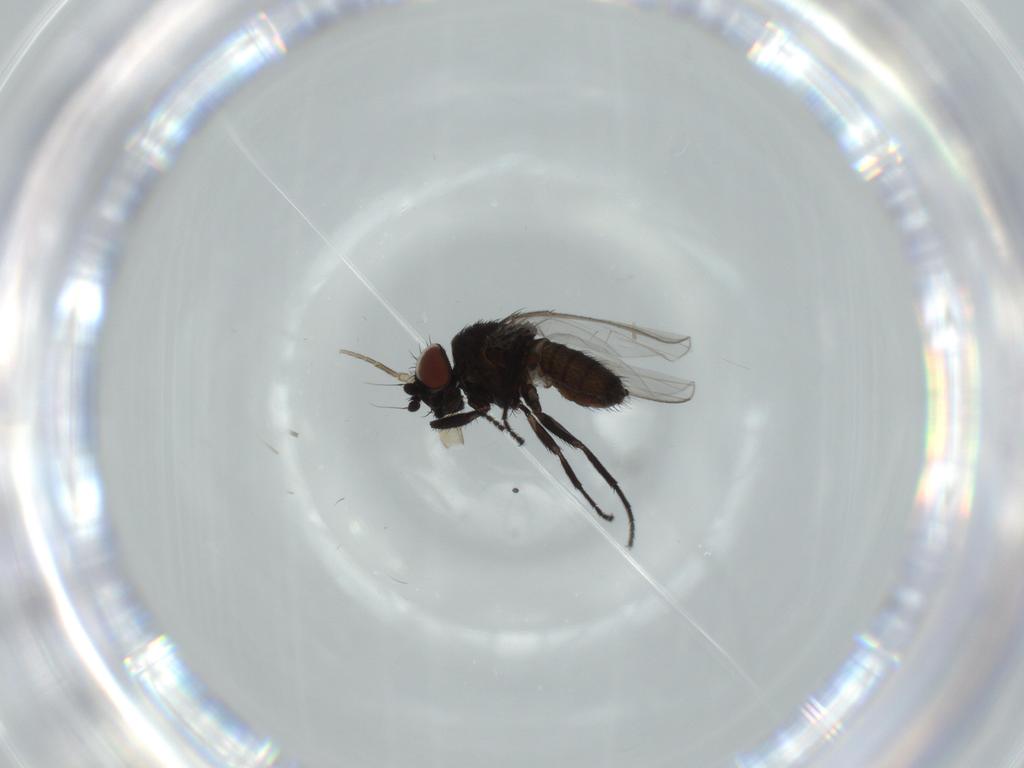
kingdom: Animalia
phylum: Arthropoda
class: Insecta
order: Diptera
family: Milichiidae
